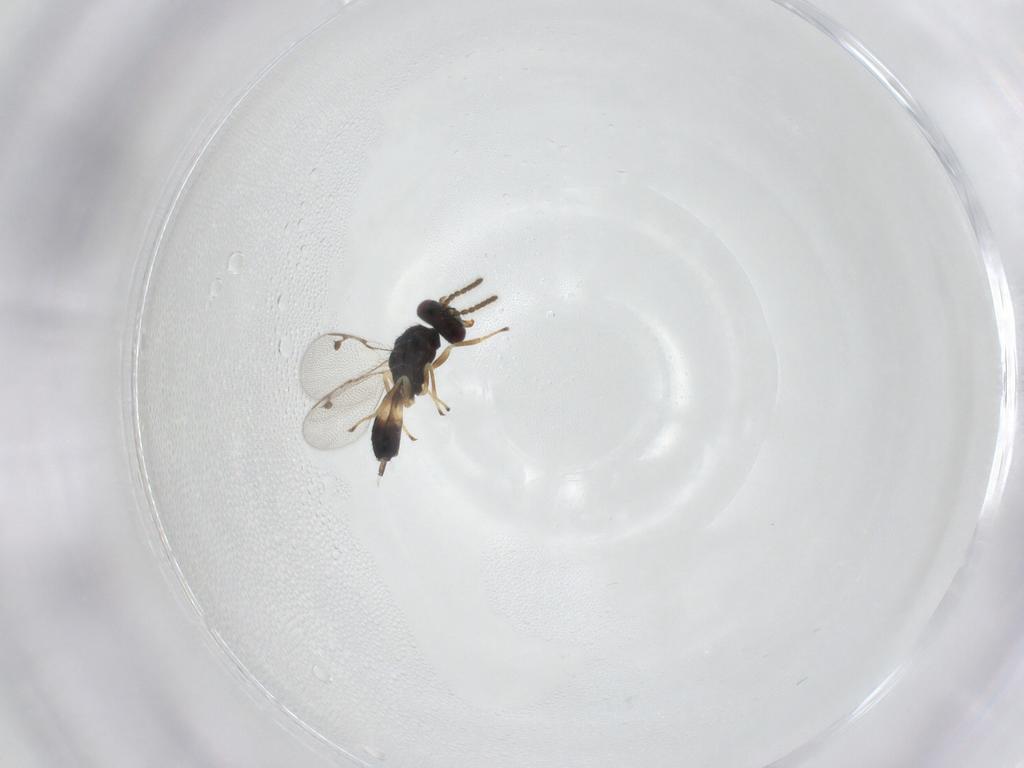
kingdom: Animalia
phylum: Arthropoda
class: Insecta
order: Hymenoptera
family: Pirenidae
